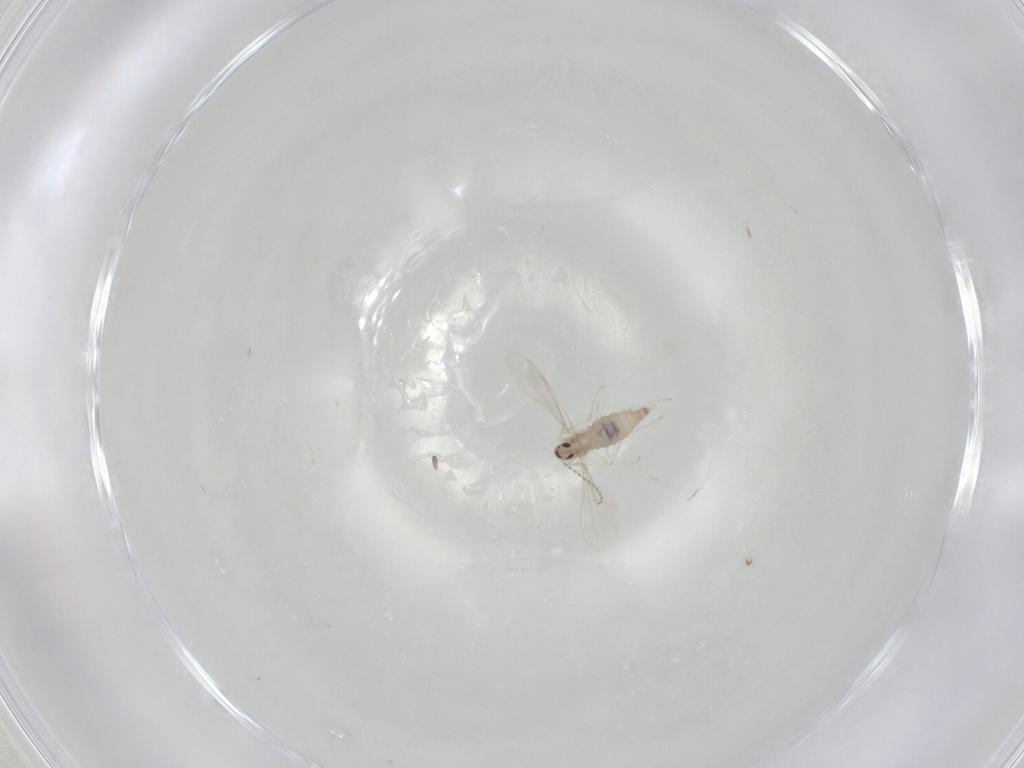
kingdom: Animalia
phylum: Arthropoda
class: Insecta
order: Diptera
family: Cecidomyiidae
